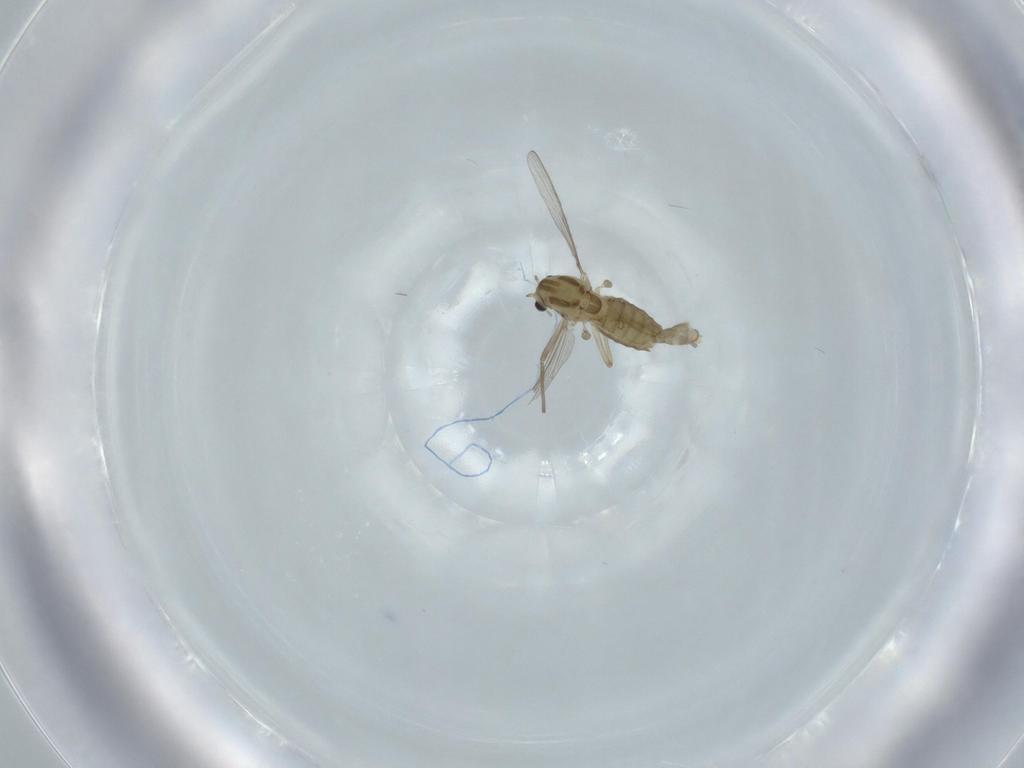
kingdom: Animalia
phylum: Arthropoda
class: Insecta
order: Diptera
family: Chironomidae
